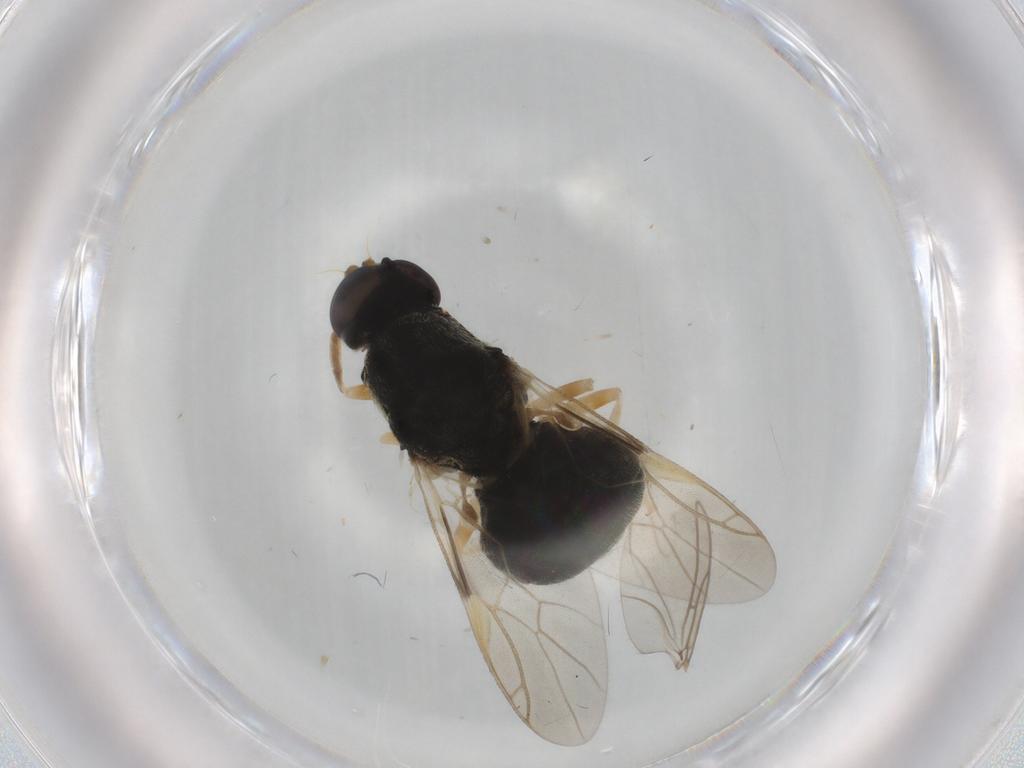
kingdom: Animalia
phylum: Arthropoda
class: Insecta
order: Diptera
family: Stratiomyidae
